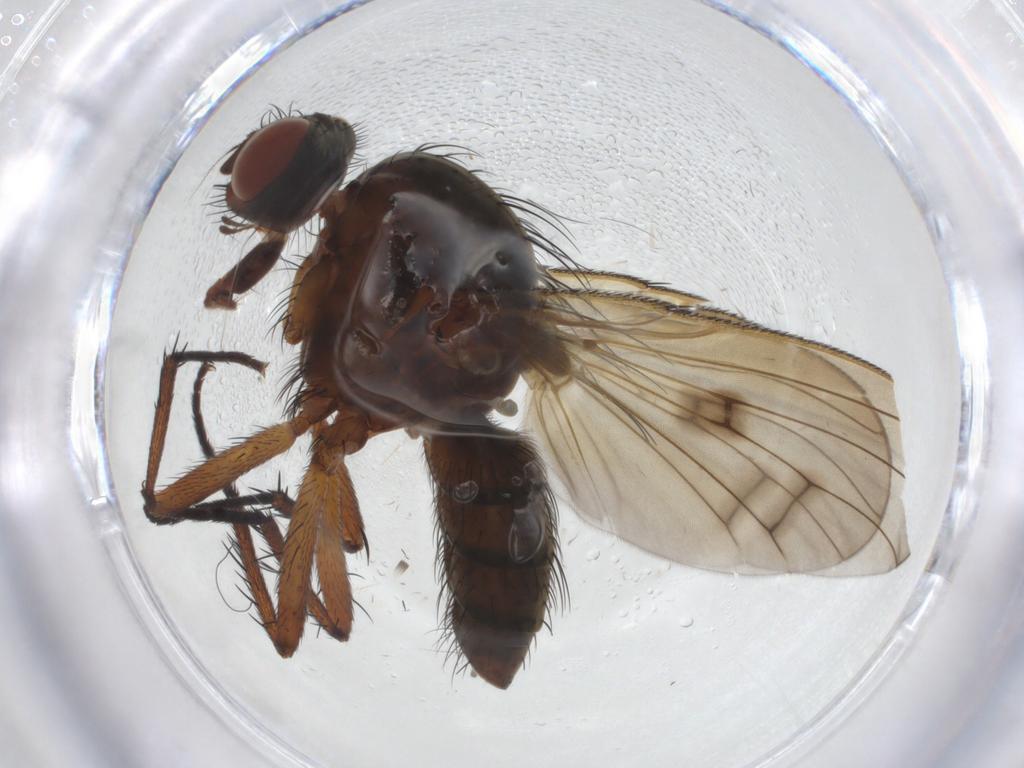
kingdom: Animalia
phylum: Arthropoda
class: Insecta
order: Diptera
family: Anthomyiidae
